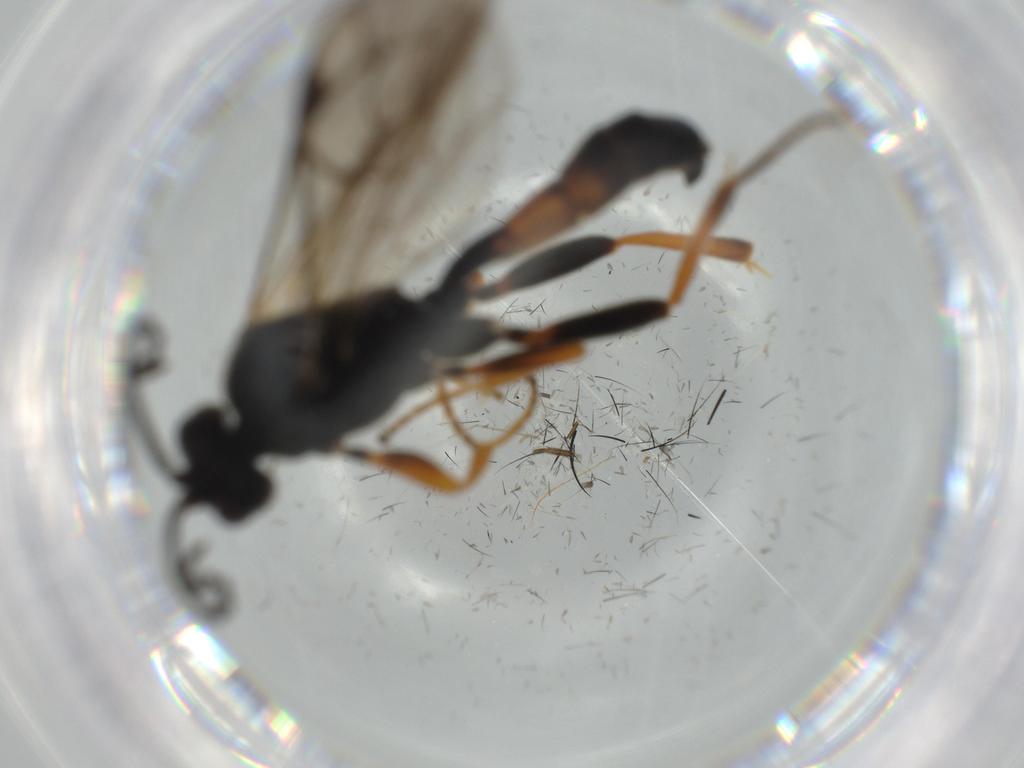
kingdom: Animalia
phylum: Arthropoda
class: Insecta
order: Hymenoptera
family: Ichneumonidae
